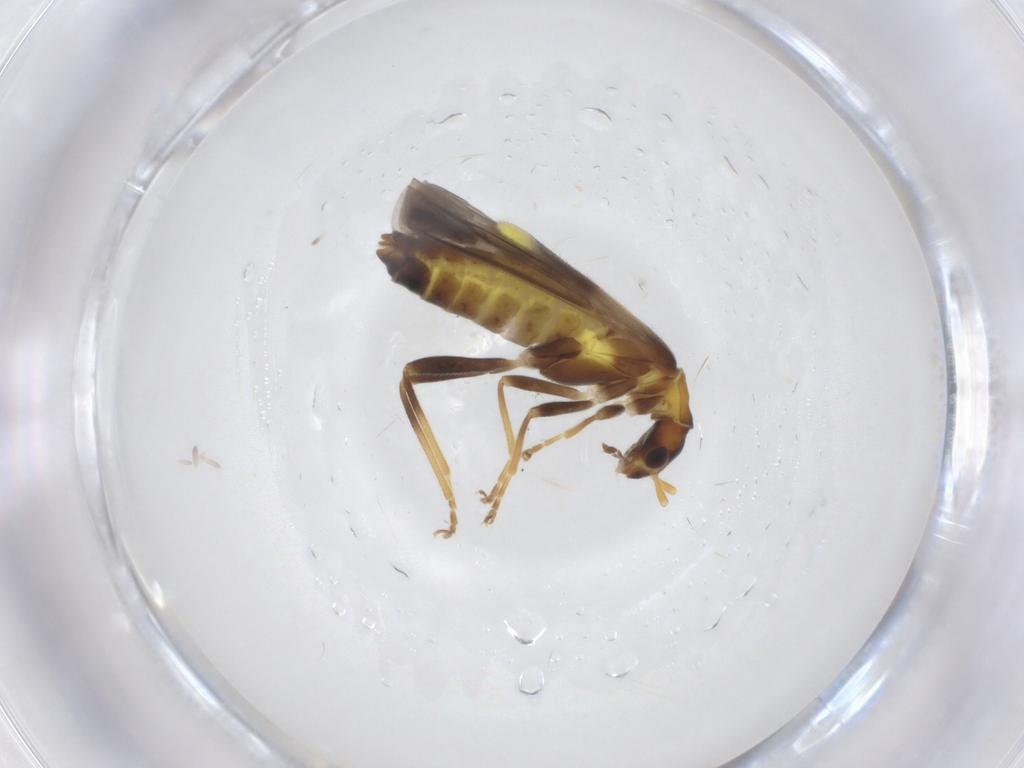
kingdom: Animalia
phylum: Arthropoda
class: Insecta
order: Coleoptera
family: Cantharidae
